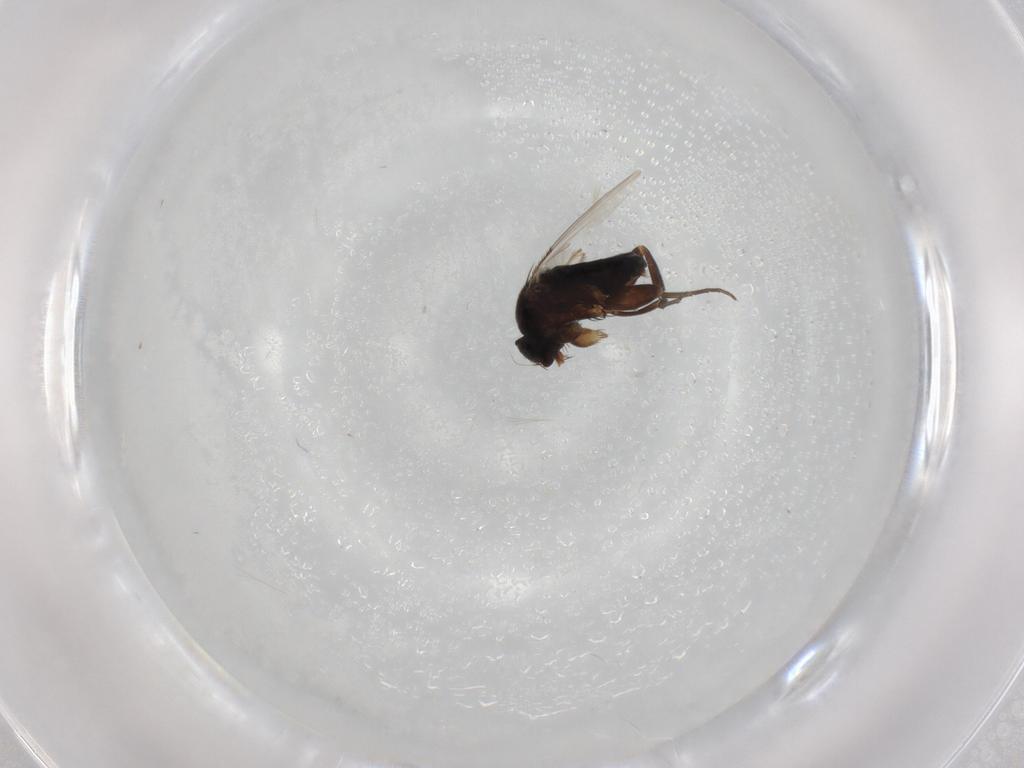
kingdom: Animalia
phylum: Arthropoda
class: Insecta
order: Diptera
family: Phoridae
